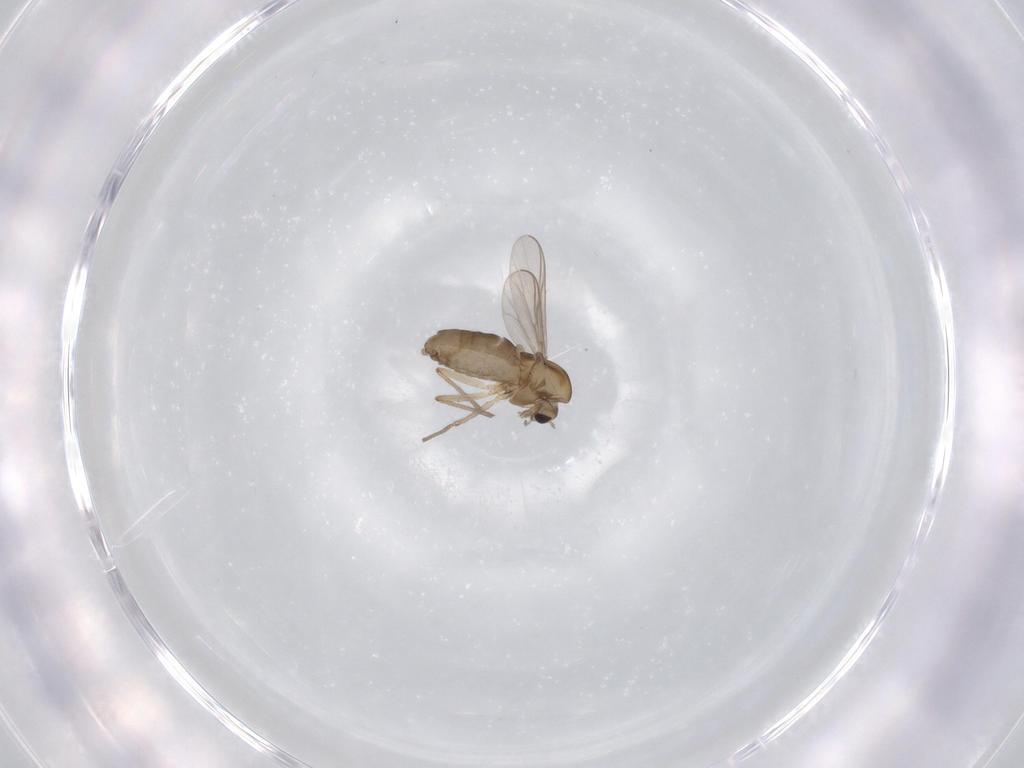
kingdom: Animalia
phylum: Arthropoda
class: Insecta
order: Diptera
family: Chironomidae
